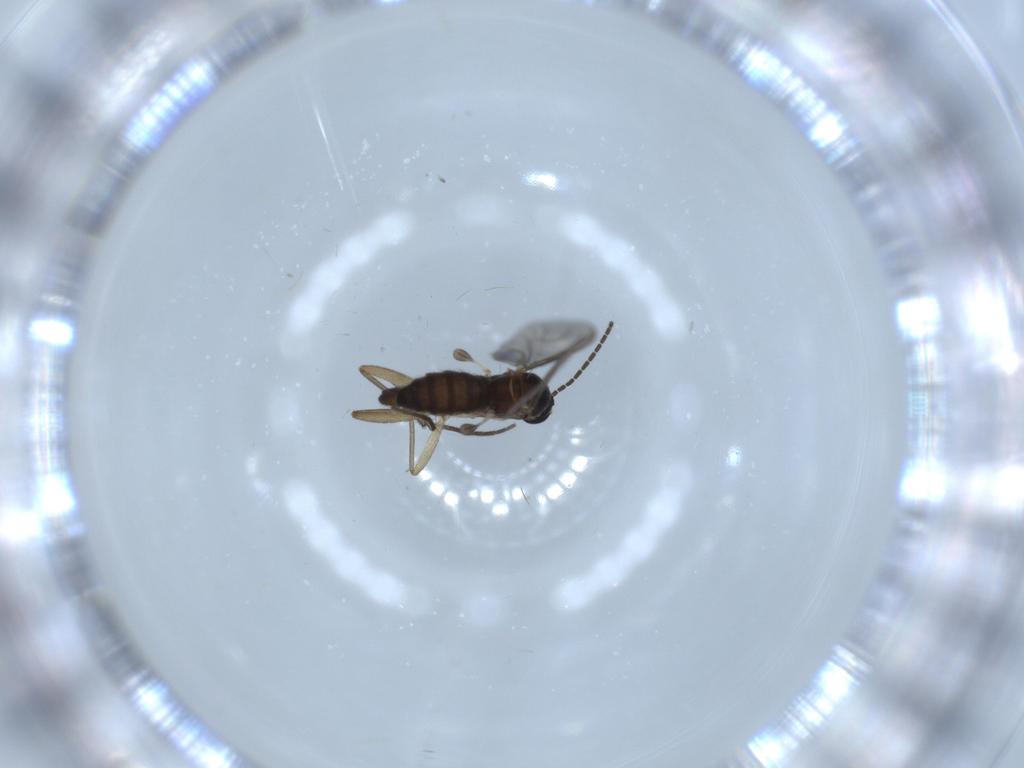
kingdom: Animalia
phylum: Arthropoda
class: Insecta
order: Diptera
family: Sciaridae
